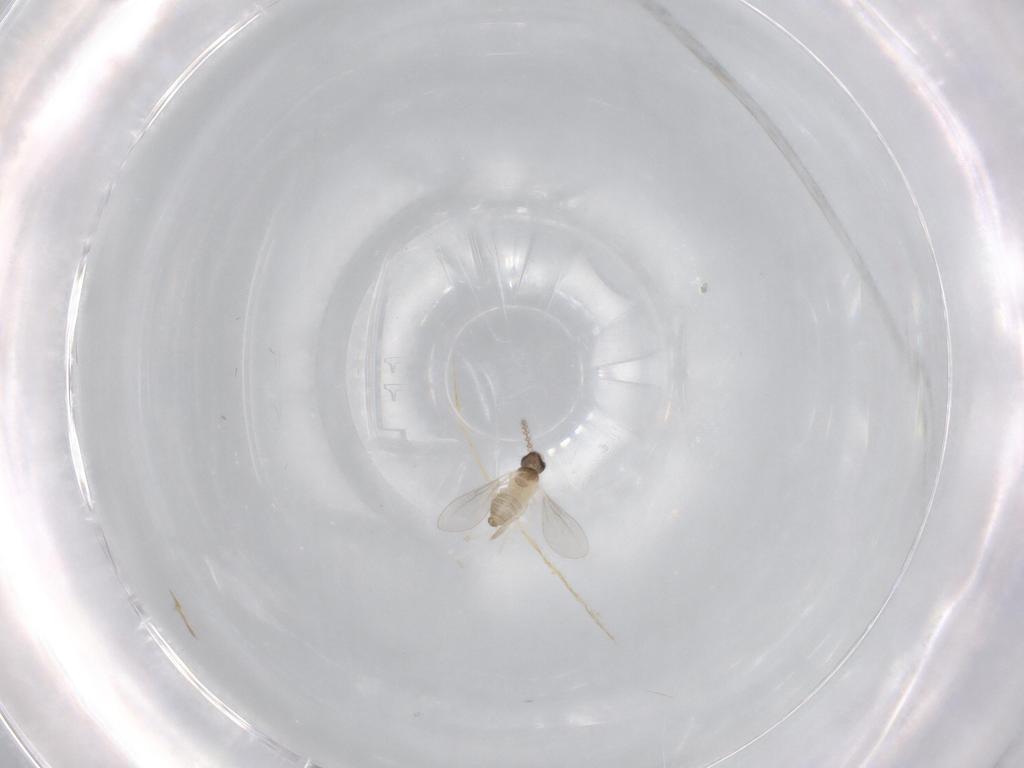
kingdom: Animalia
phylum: Arthropoda
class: Insecta
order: Diptera
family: Cecidomyiidae
